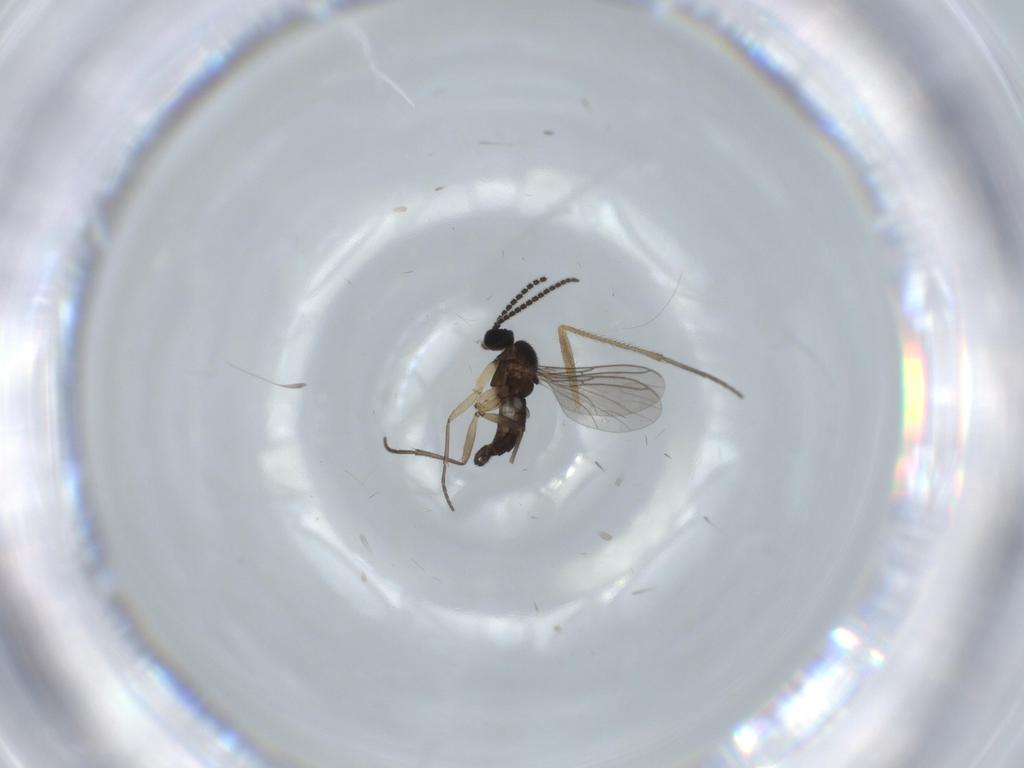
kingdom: Animalia
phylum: Arthropoda
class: Insecta
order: Diptera
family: Sciaridae
